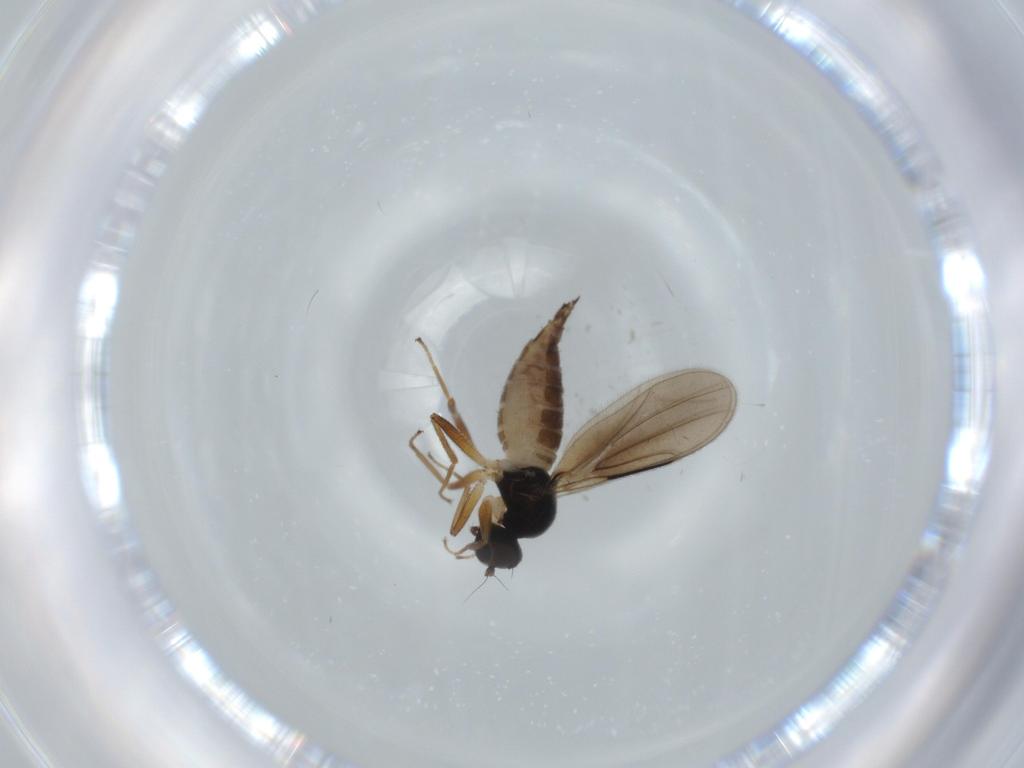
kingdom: Animalia
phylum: Arthropoda
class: Insecta
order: Diptera
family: Hybotidae
